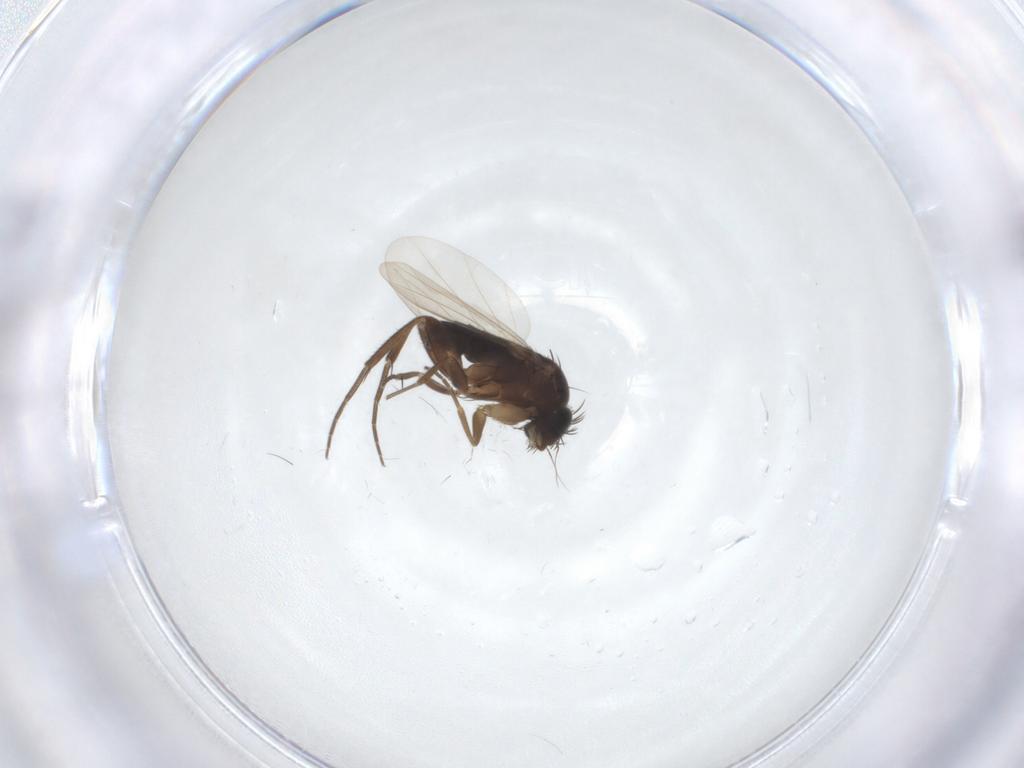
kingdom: Animalia
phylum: Arthropoda
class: Insecta
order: Diptera
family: Phoridae
